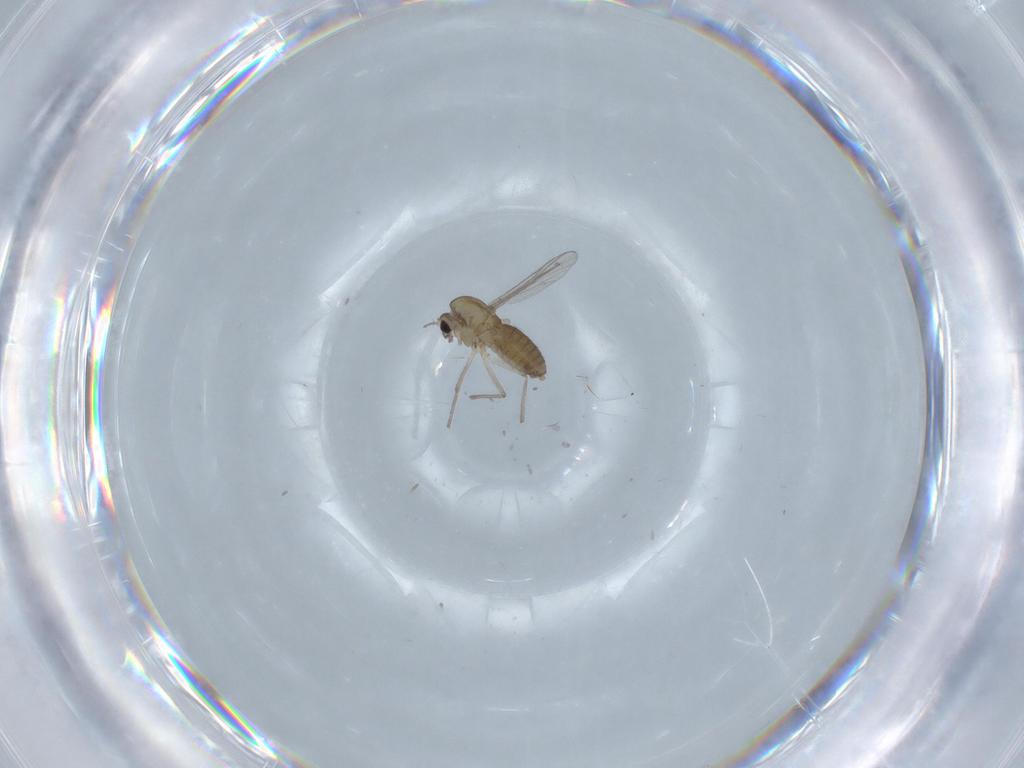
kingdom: Animalia
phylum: Arthropoda
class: Insecta
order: Diptera
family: Chironomidae
